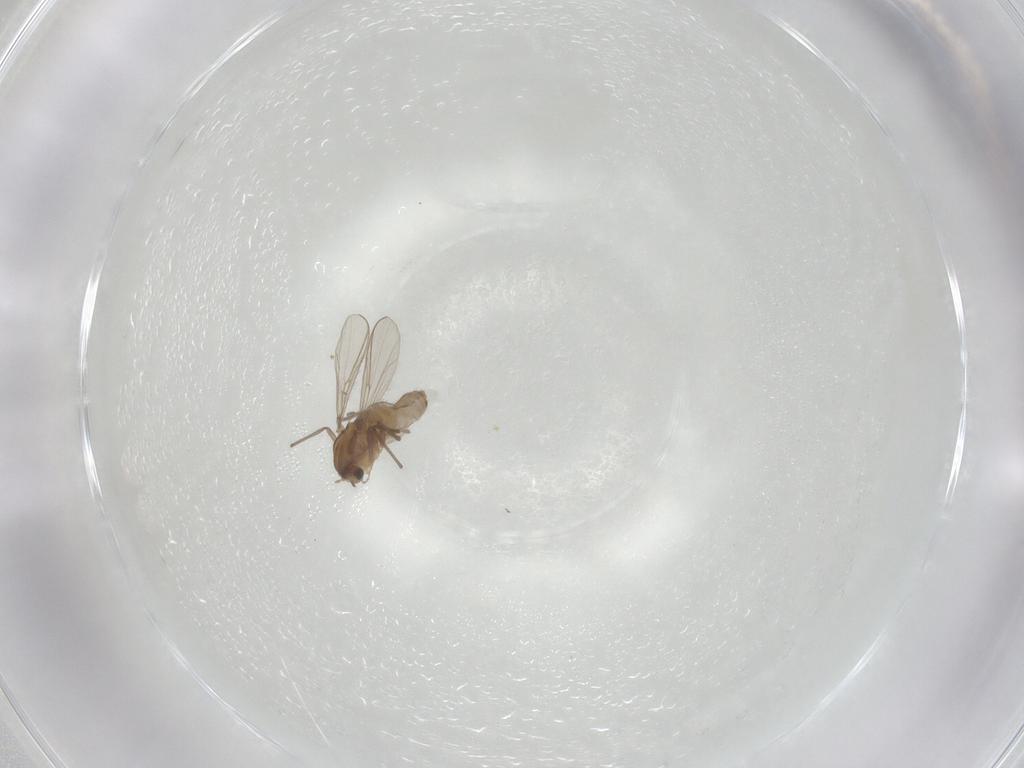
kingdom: Animalia
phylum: Arthropoda
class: Insecta
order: Diptera
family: Chironomidae
